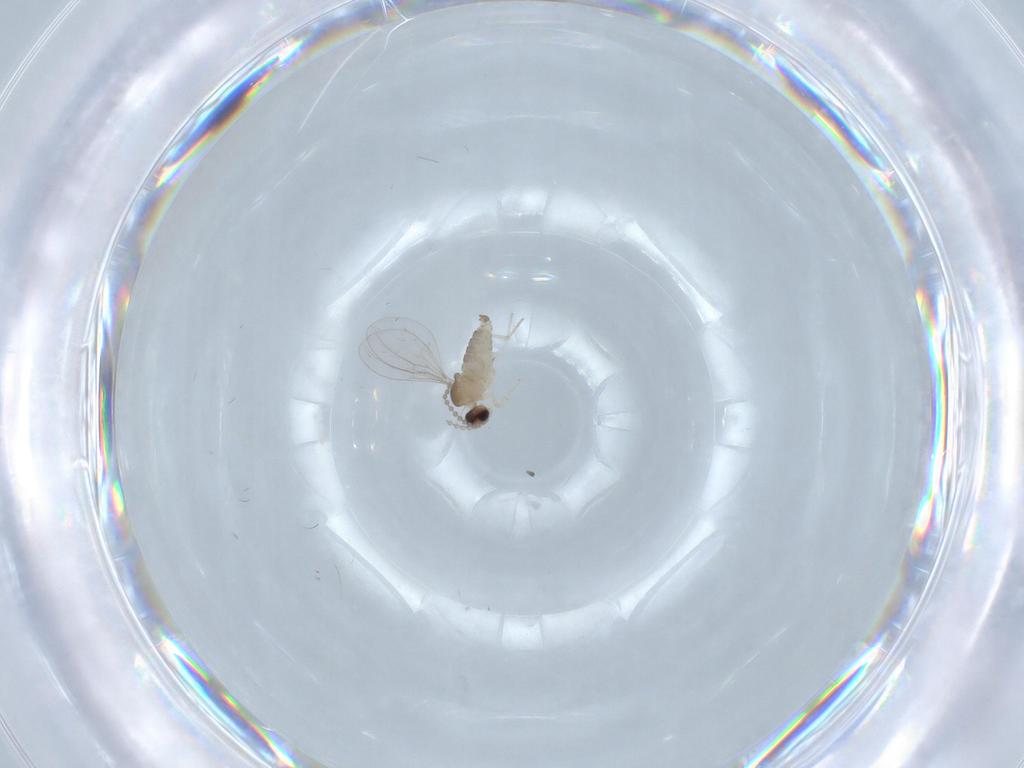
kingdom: Animalia
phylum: Arthropoda
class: Insecta
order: Diptera
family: Cecidomyiidae
